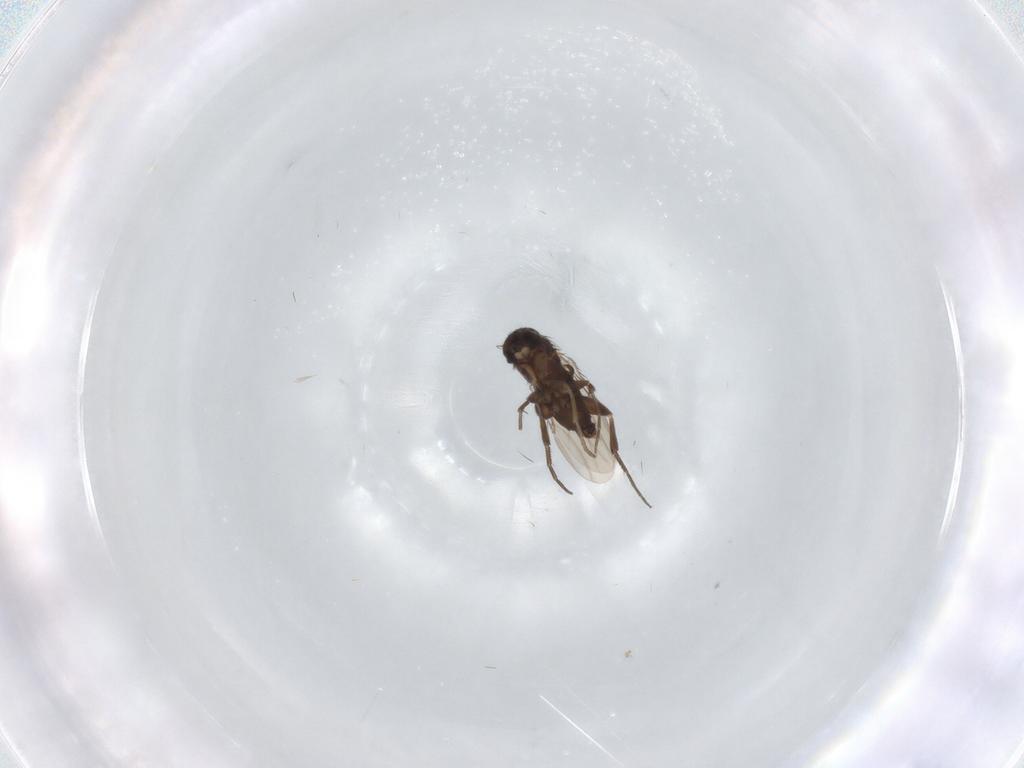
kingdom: Animalia
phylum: Arthropoda
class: Insecta
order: Diptera
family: Phoridae
